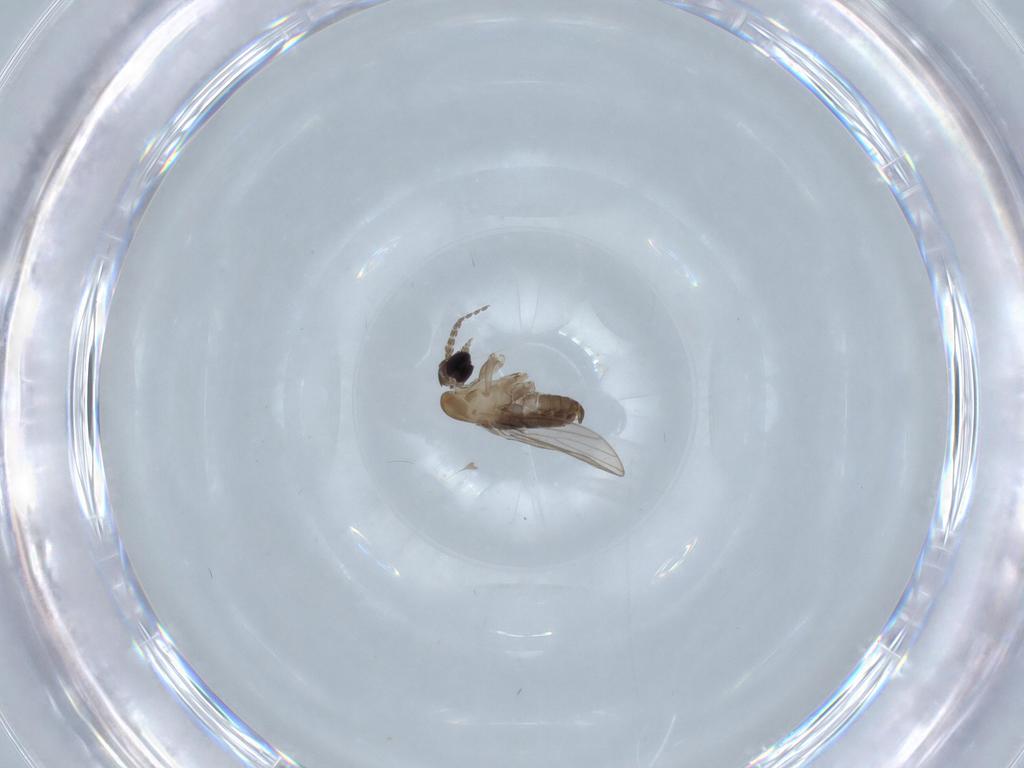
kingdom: Animalia
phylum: Arthropoda
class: Insecta
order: Diptera
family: Psychodidae
